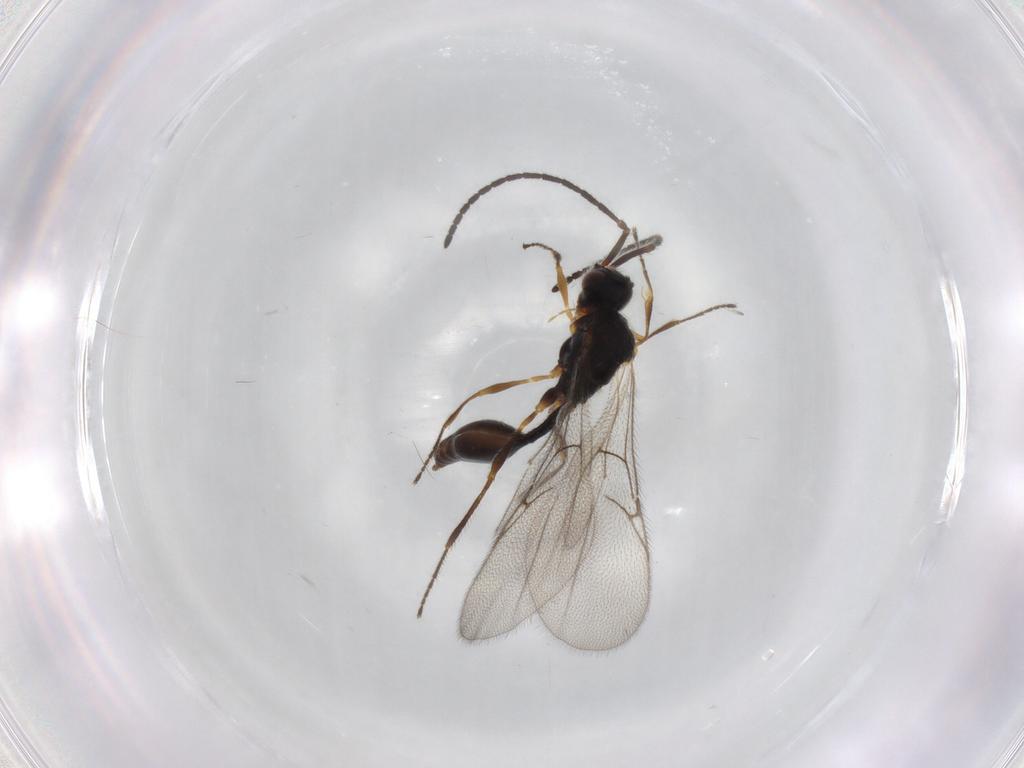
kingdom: Animalia
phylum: Arthropoda
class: Insecta
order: Hymenoptera
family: Diapriidae
